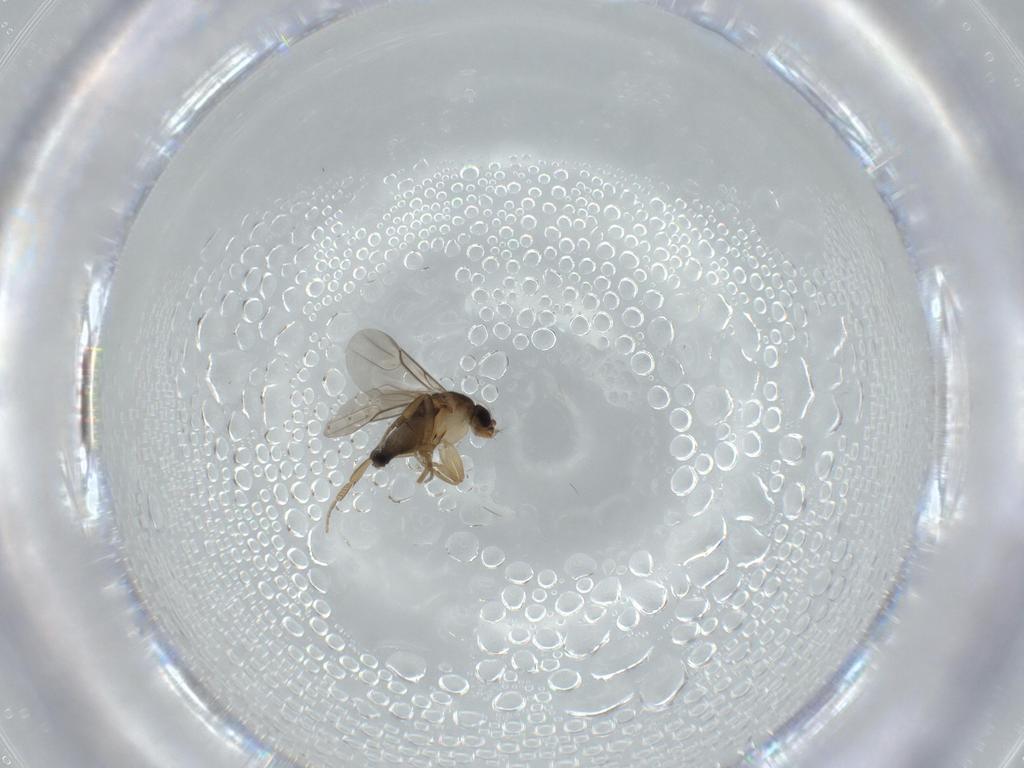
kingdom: Animalia
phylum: Arthropoda
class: Insecta
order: Diptera
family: Phoridae
